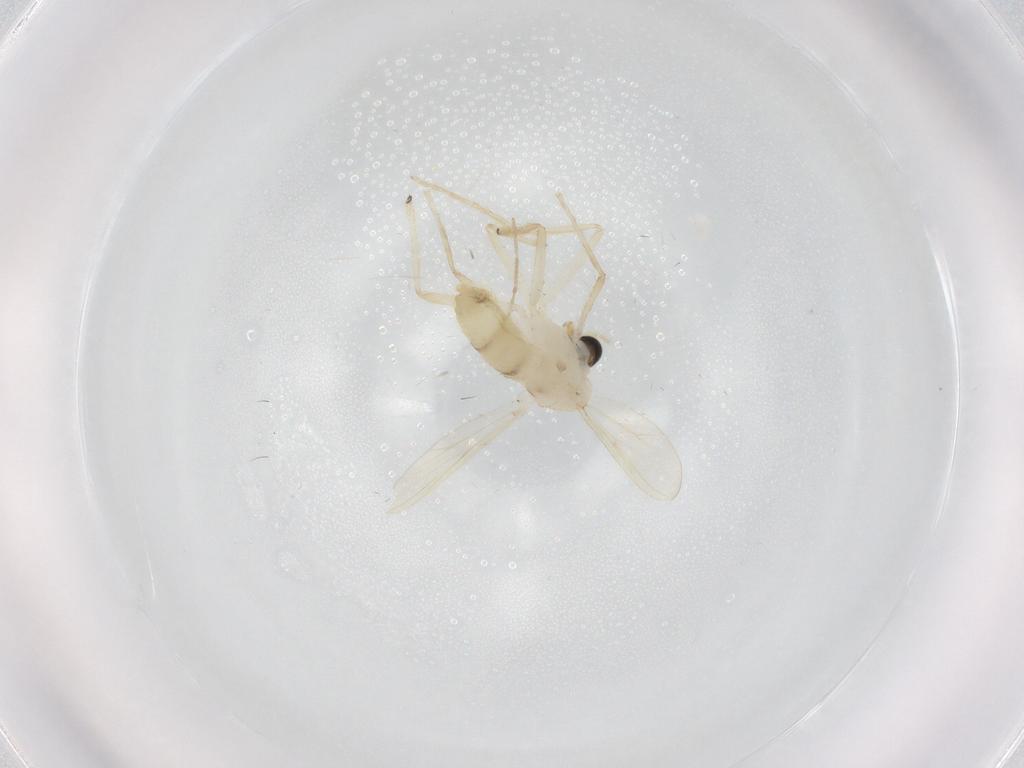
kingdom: Animalia
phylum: Arthropoda
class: Insecta
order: Diptera
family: Chironomidae
